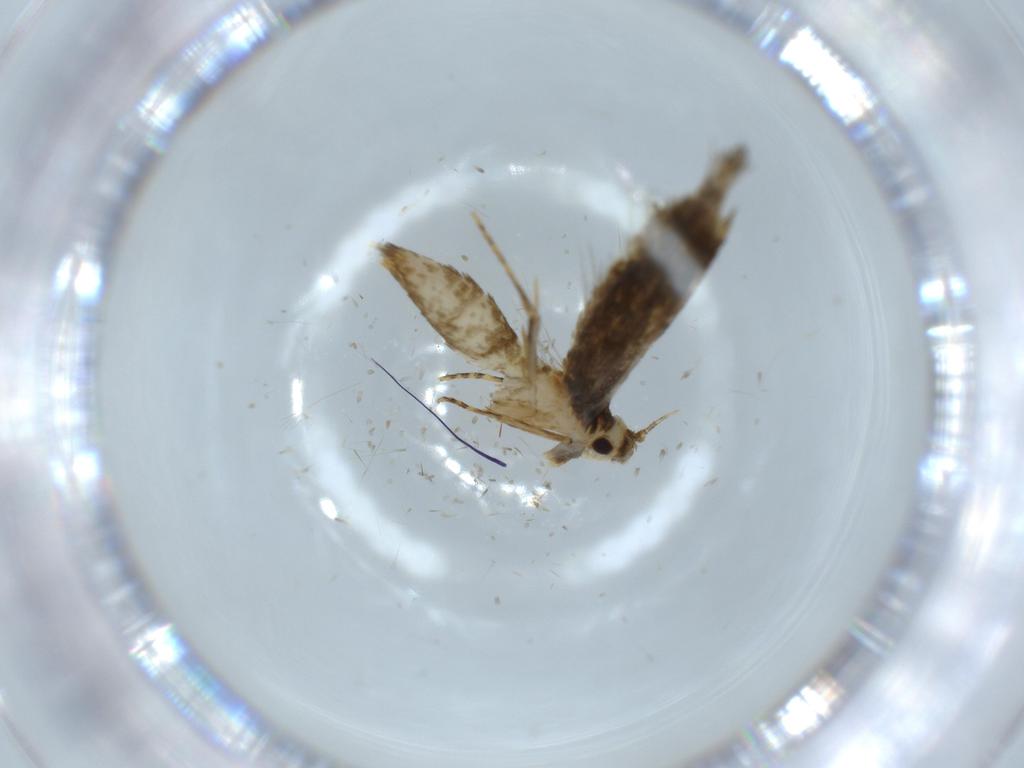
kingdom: Animalia
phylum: Arthropoda
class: Insecta
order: Lepidoptera
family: Tineidae
